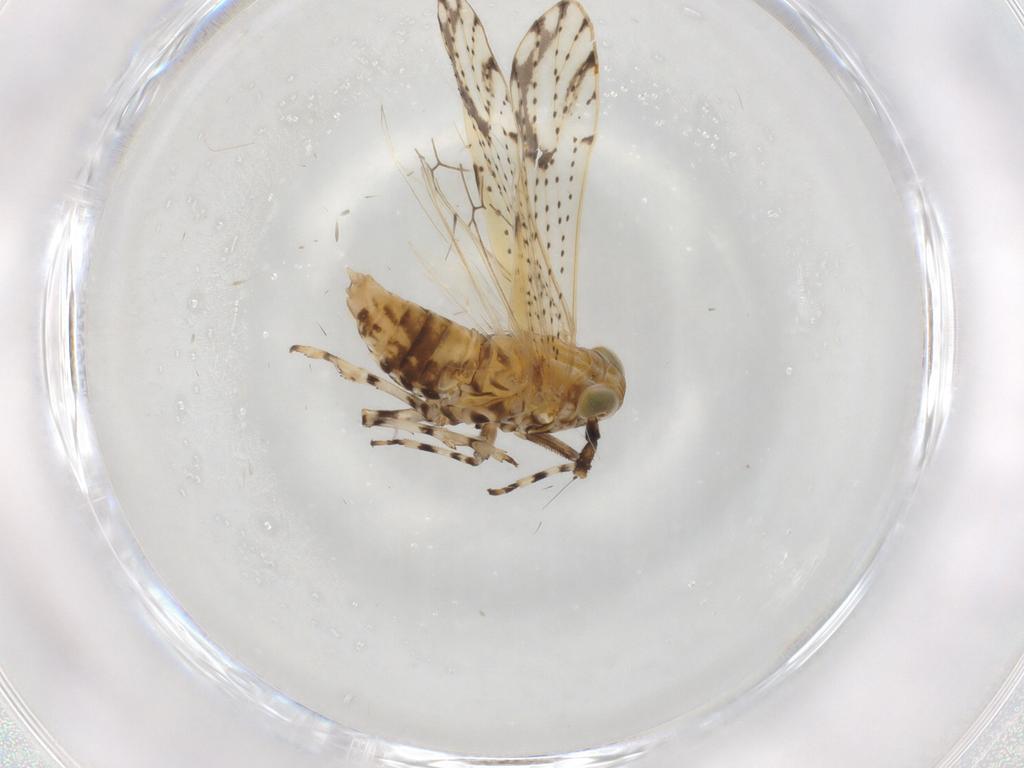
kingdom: Animalia
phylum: Arthropoda
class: Insecta
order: Hemiptera
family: Delphacidae
